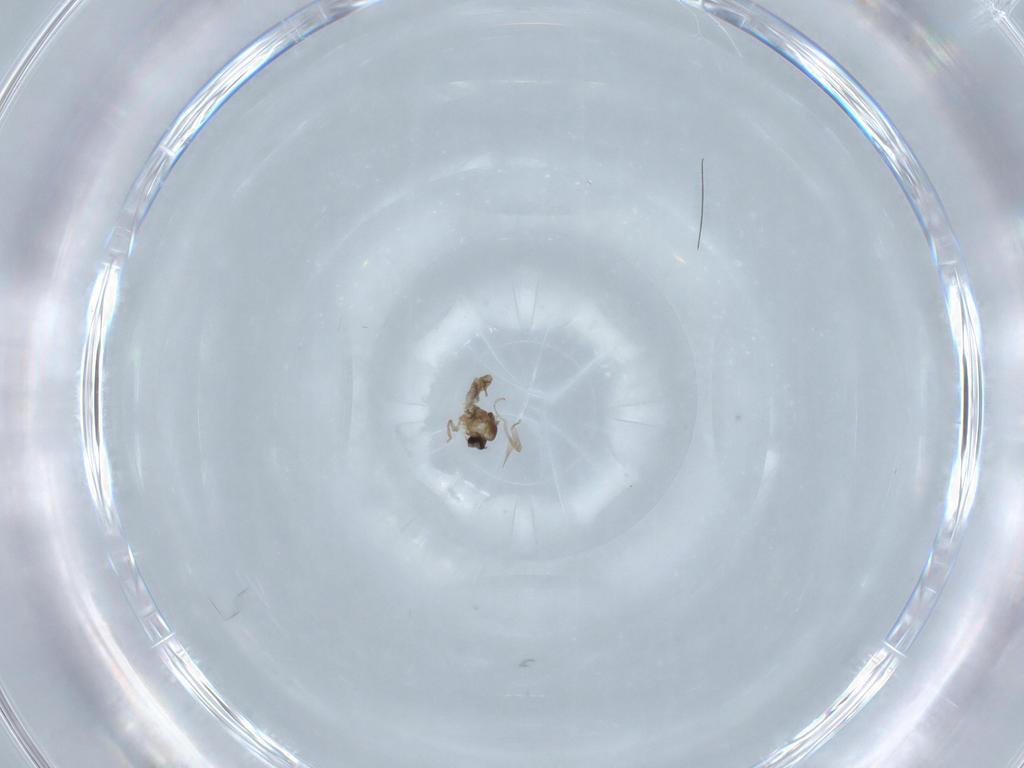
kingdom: Animalia
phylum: Arthropoda
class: Insecta
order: Diptera
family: Cecidomyiidae
